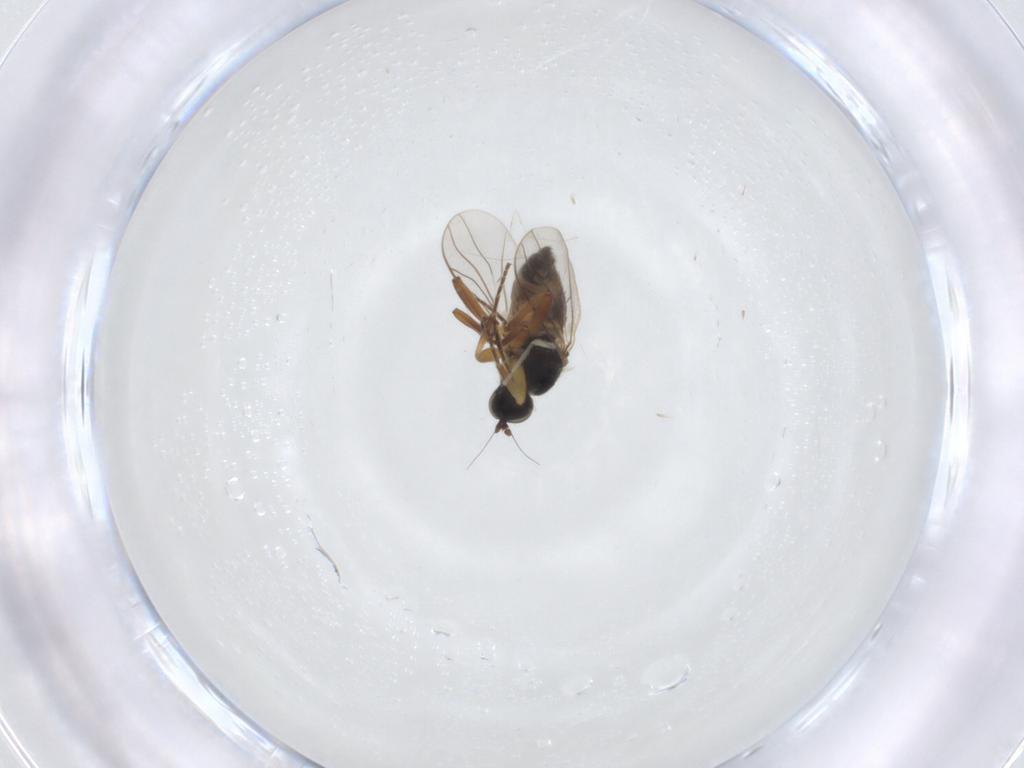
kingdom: Animalia
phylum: Arthropoda
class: Insecta
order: Diptera
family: Hybotidae
